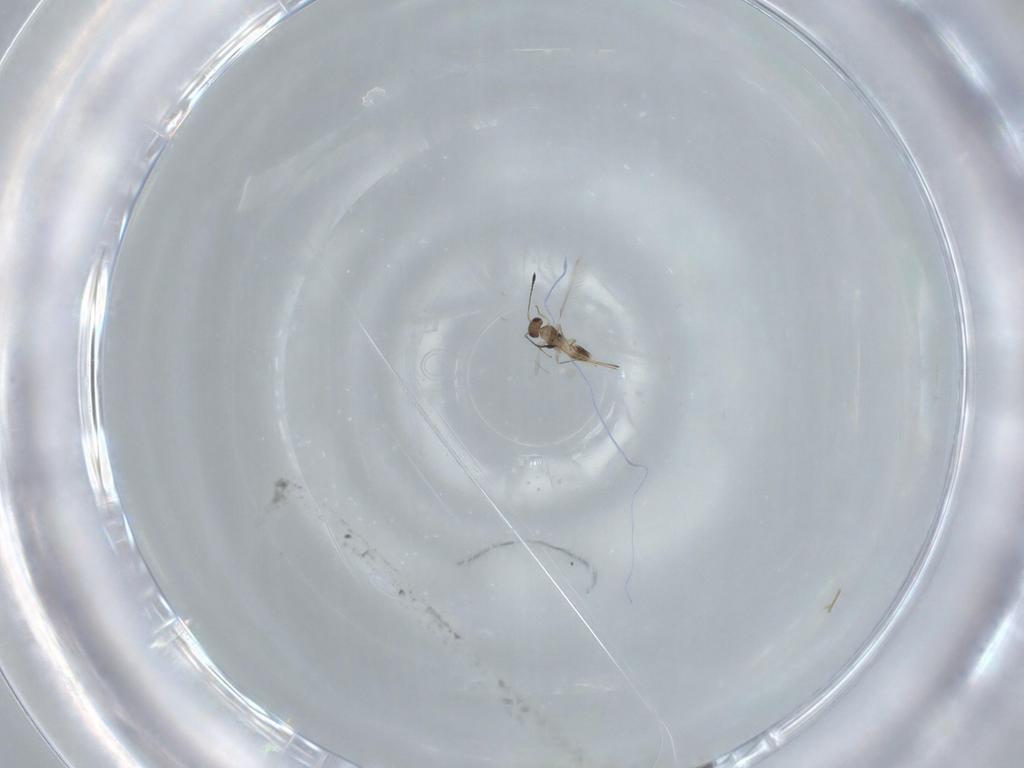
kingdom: Animalia
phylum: Arthropoda
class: Insecta
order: Hymenoptera
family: Mymaridae
